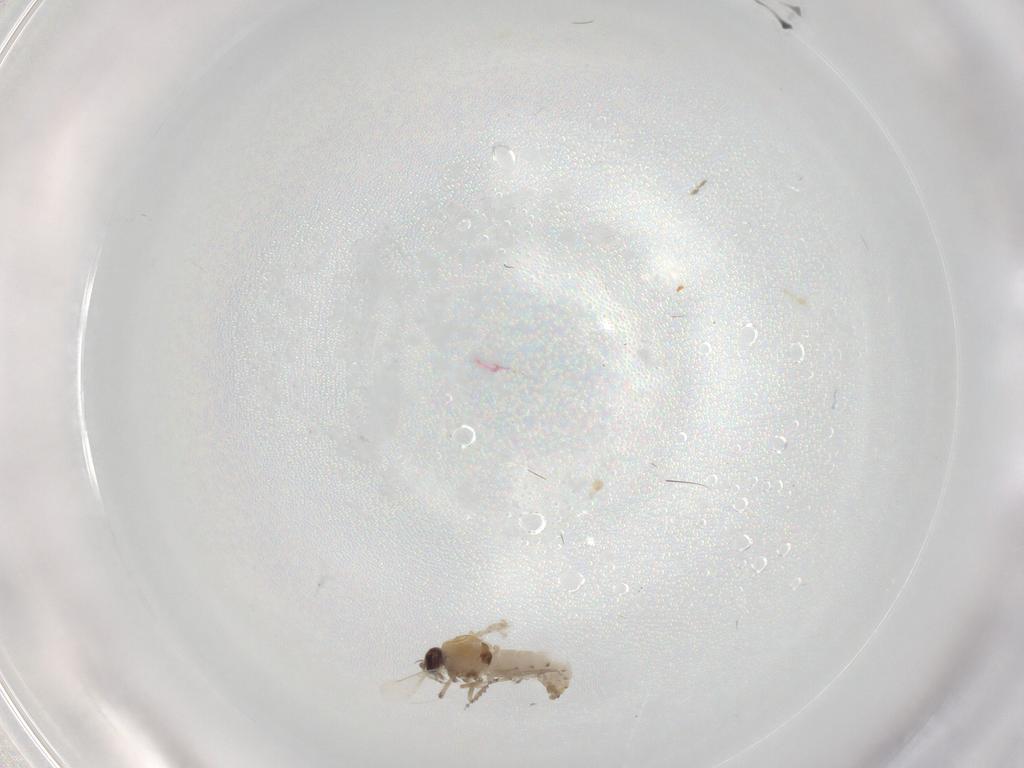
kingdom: Animalia
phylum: Arthropoda
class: Insecta
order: Diptera
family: Cecidomyiidae
